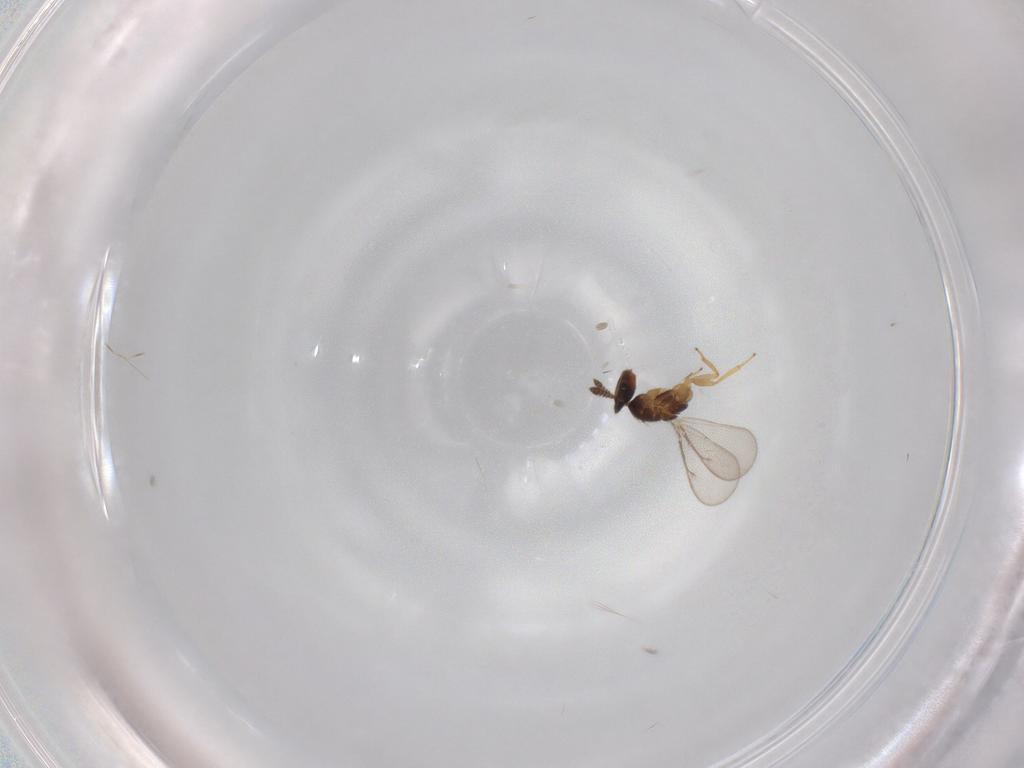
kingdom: Animalia
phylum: Arthropoda
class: Insecta
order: Hymenoptera
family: Eulophidae
